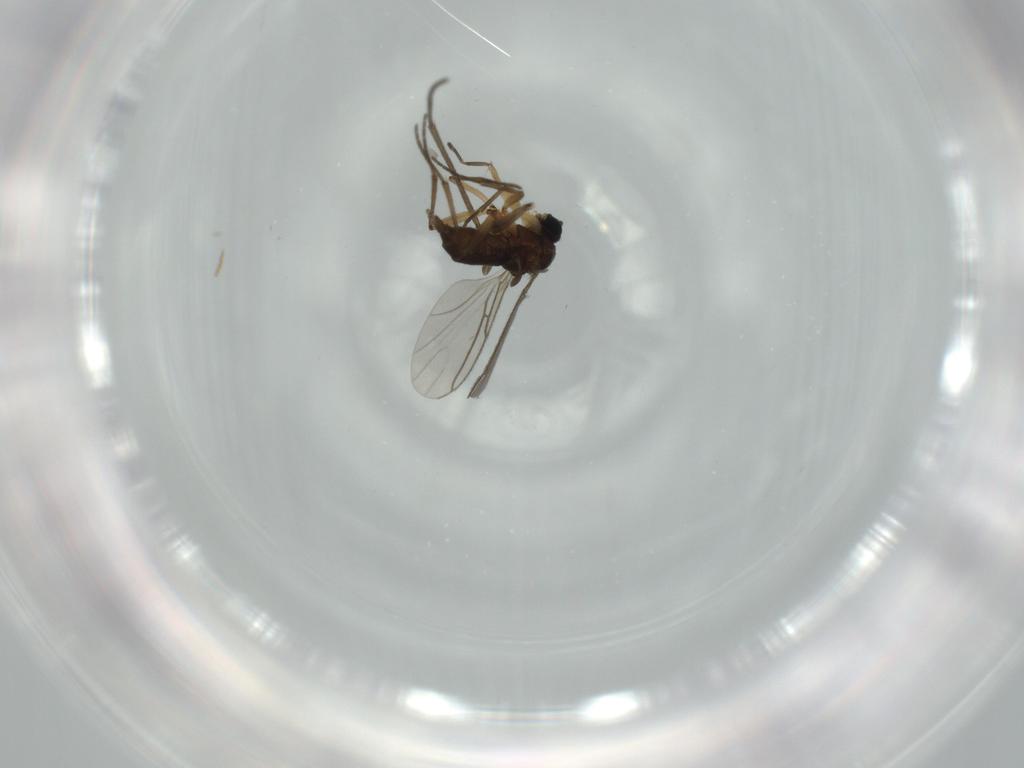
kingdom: Animalia
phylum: Arthropoda
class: Insecta
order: Diptera
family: Sciaridae
